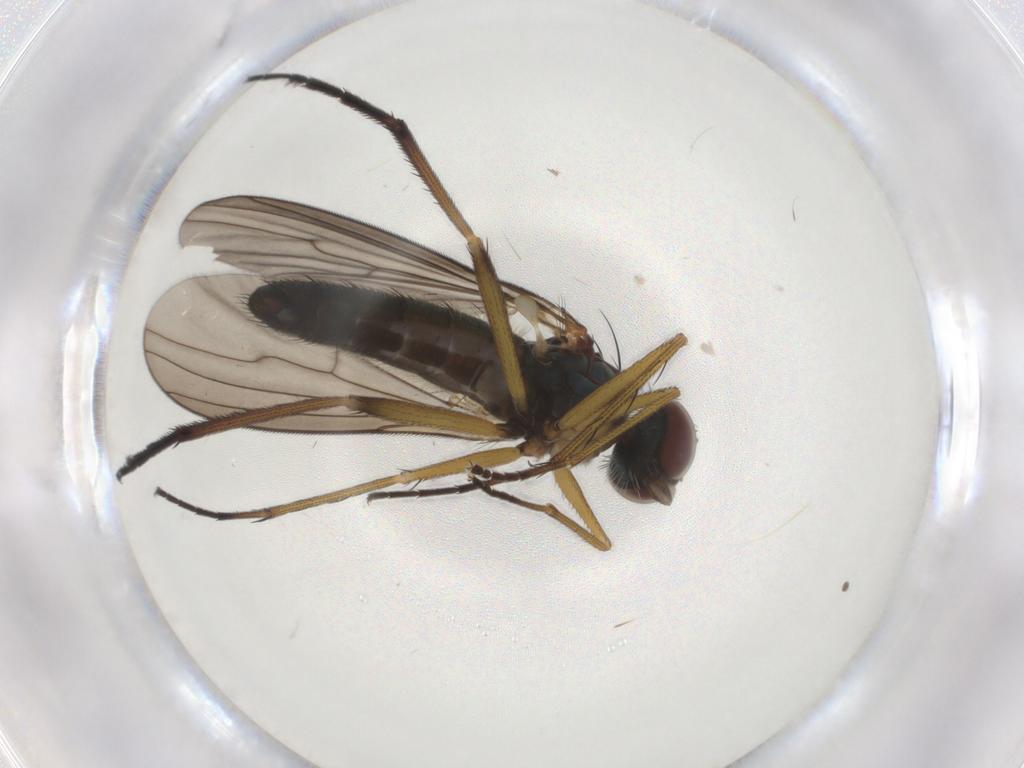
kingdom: Animalia
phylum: Arthropoda
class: Insecta
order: Diptera
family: Dolichopodidae
